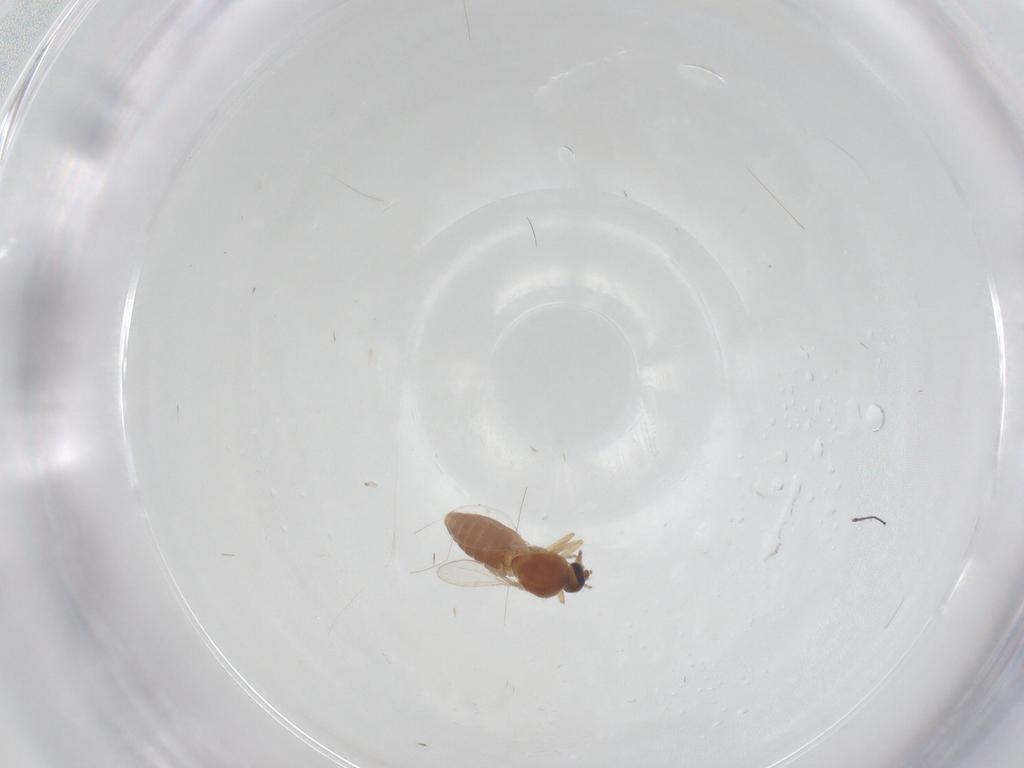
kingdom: Animalia
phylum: Arthropoda
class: Insecta
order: Diptera
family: Ceratopogonidae
